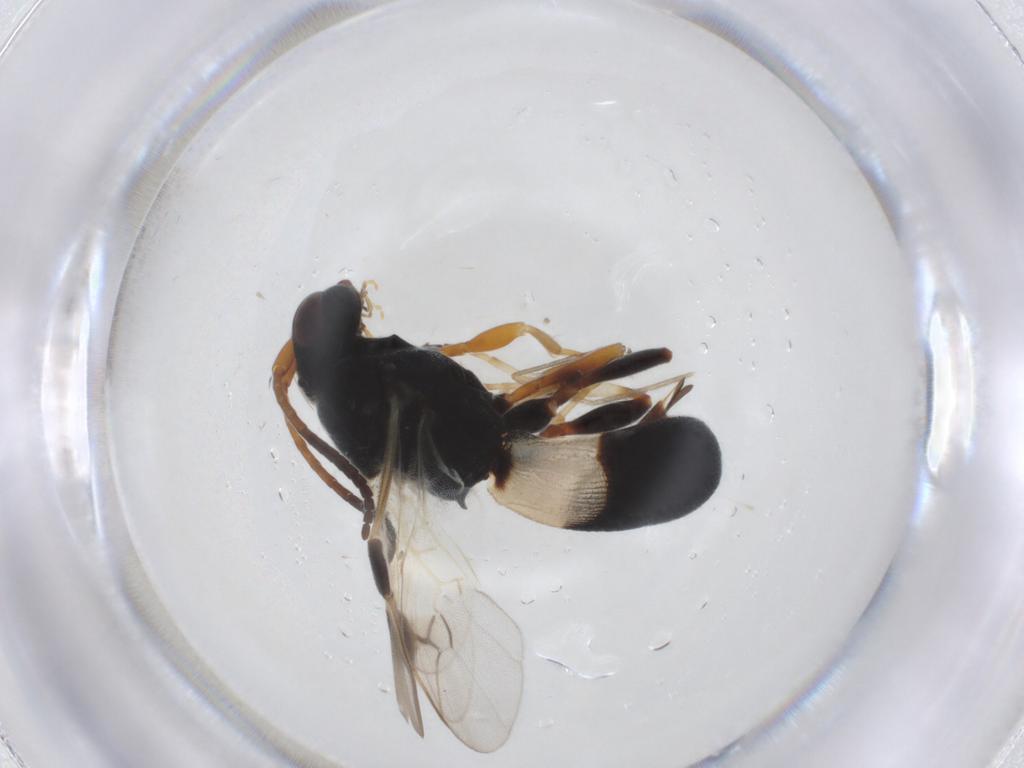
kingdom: Animalia
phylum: Arthropoda
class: Insecta
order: Hymenoptera
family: Braconidae
